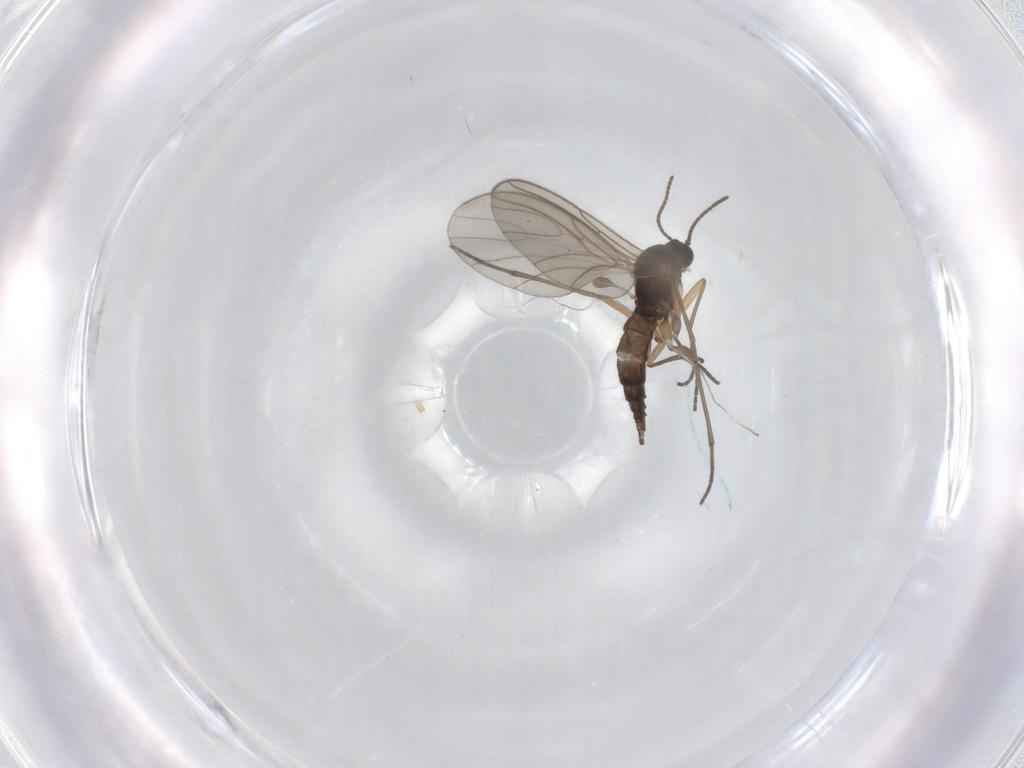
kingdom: Animalia
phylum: Arthropoda
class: Insecta
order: Diptera
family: Sciaridae
